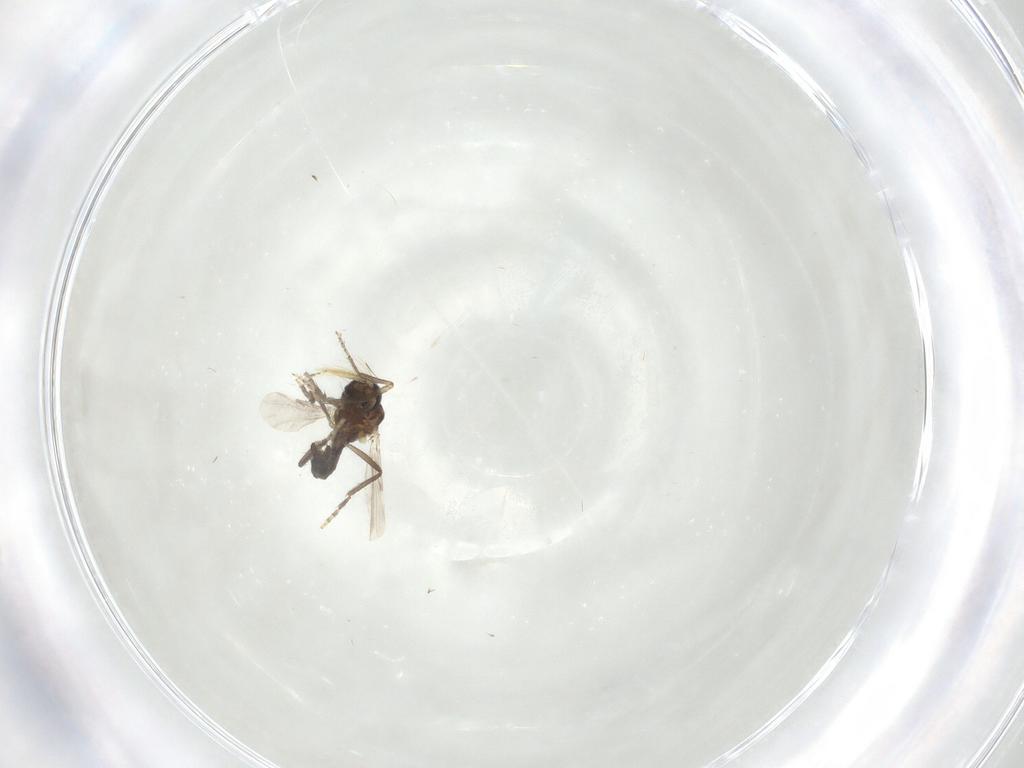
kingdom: Animalia
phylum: Arthropoda
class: Insecta
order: Diptera
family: Ceratopogonidae
